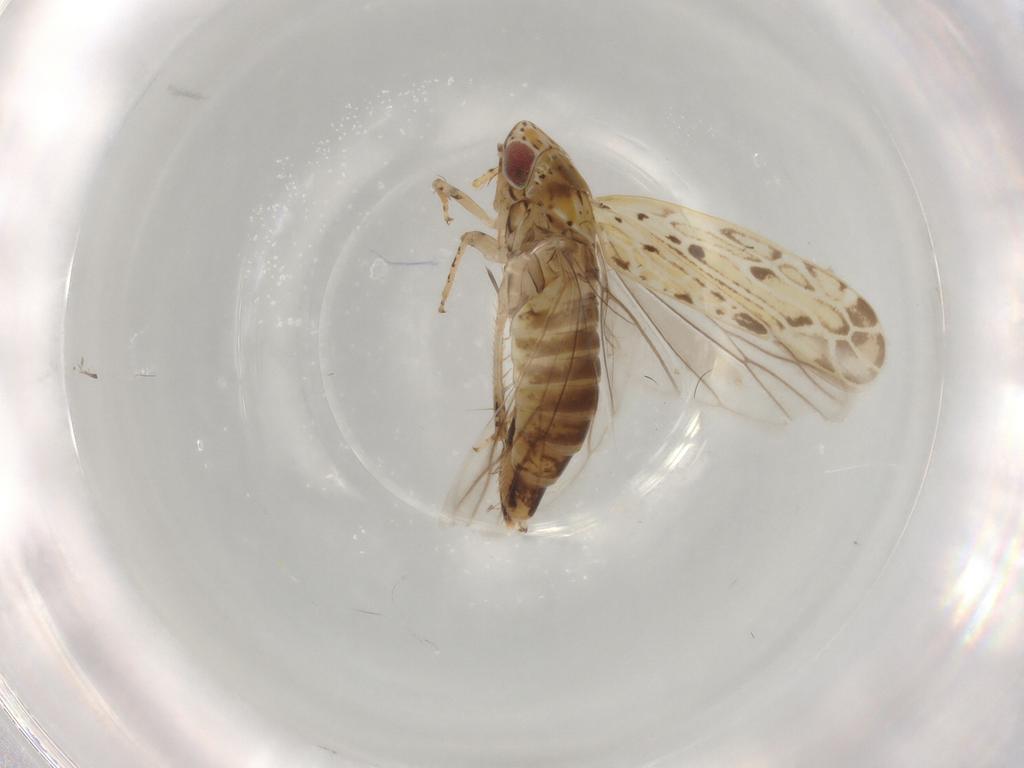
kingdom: Animalia
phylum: Arthropoda
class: Insecta
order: Hemiptera
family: Cicadellidae
